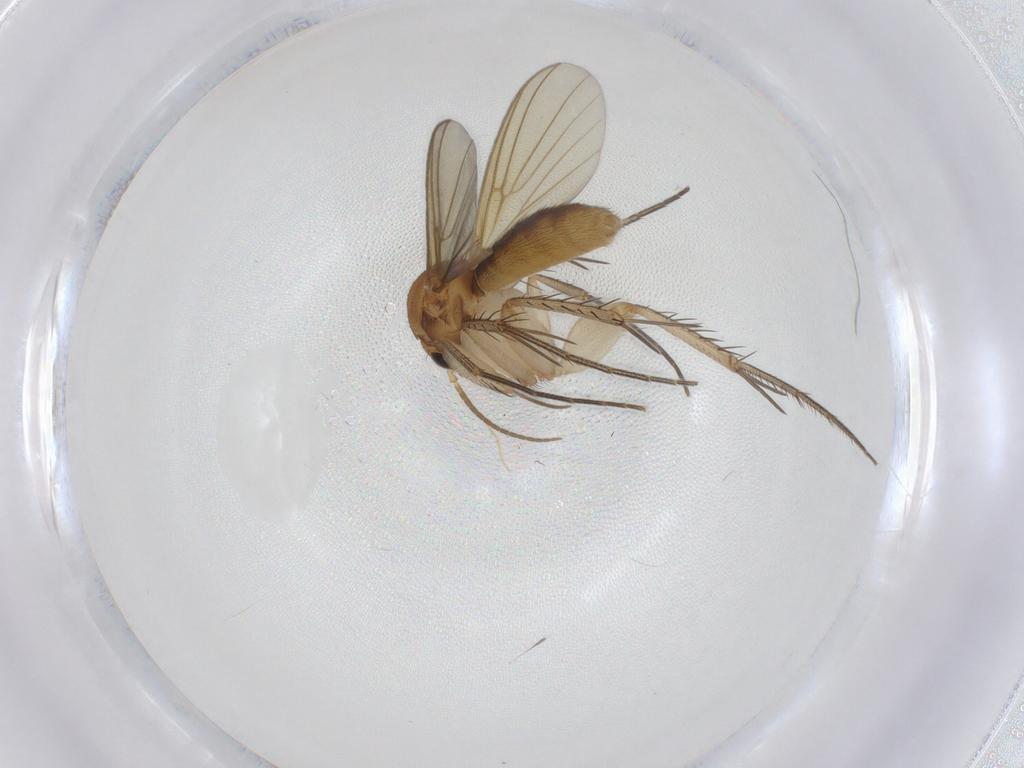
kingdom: Animalia
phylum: Arthropoda
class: Insecta
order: Diptera
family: Mycetophilidae
